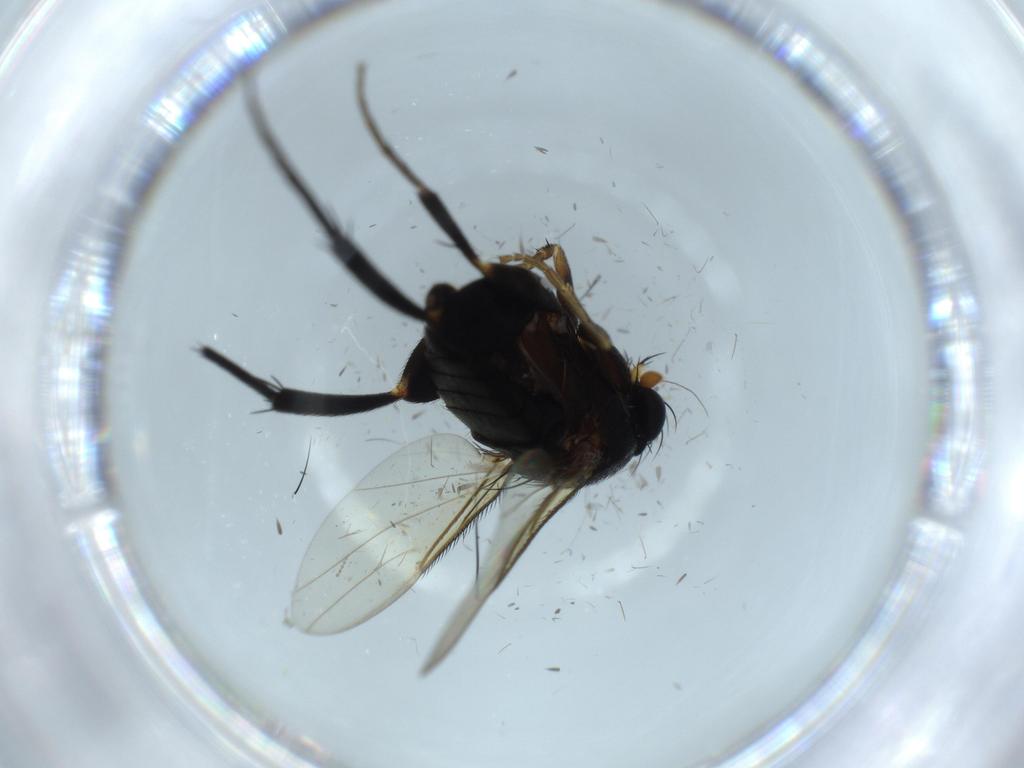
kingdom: Animalia
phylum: Arthropoda
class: Insecta
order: Diptera
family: Phoridae
